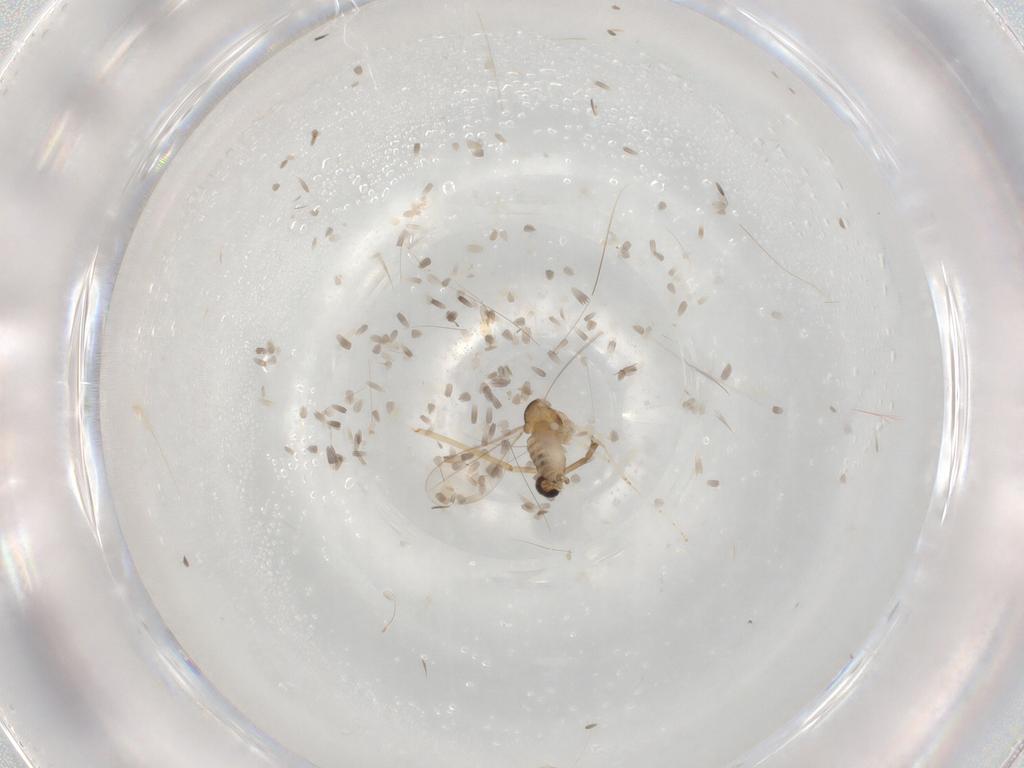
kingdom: Animalia
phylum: Arthropoda
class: Insecta
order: Diptera
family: Cecidomyiidae
